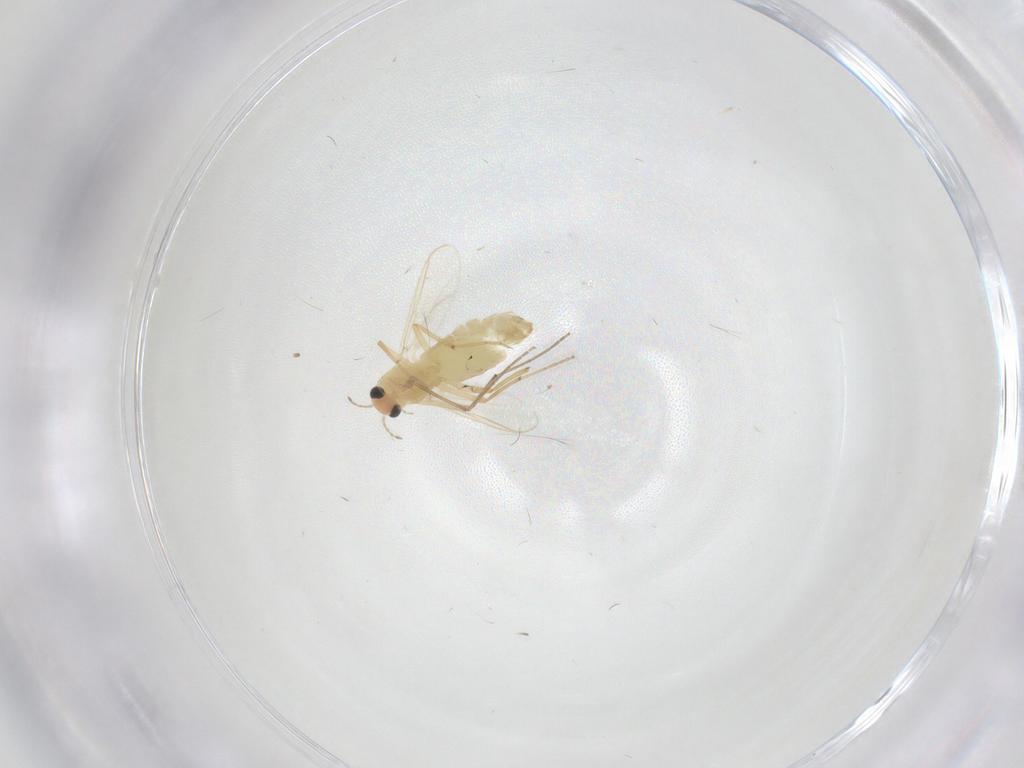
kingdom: Animalia
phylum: Arthropoda
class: Insecta
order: Diptera
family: Chironomidae
